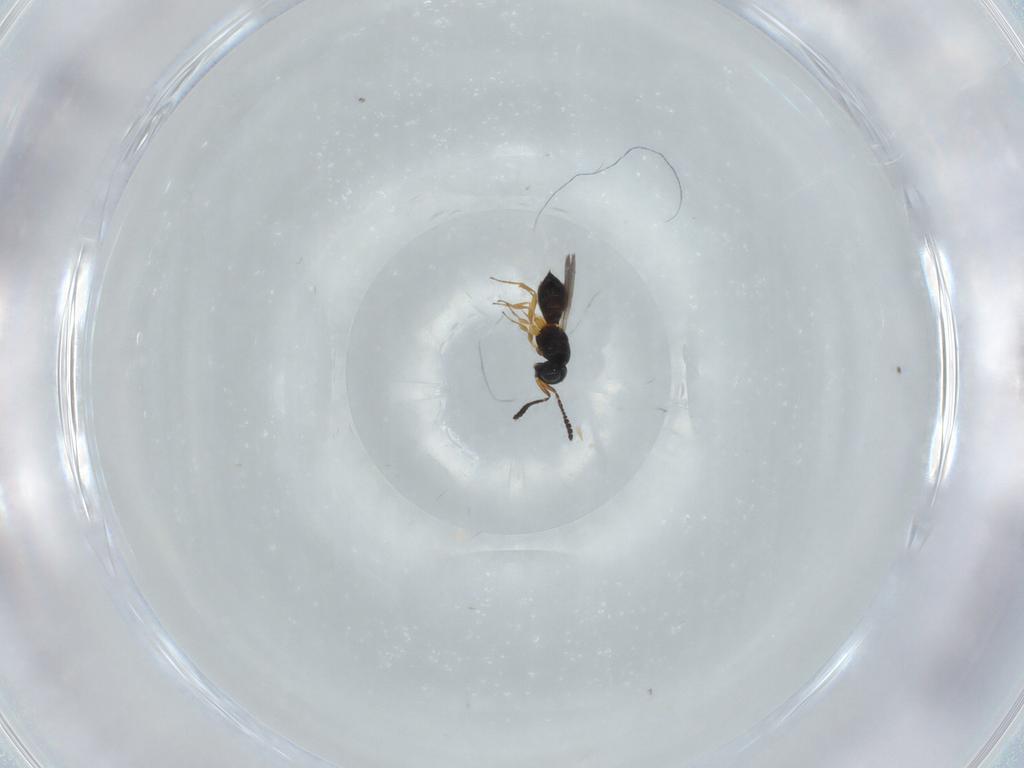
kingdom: Animalia
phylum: Arthropoda
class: Insecta
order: Hymenoptera
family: Scelionidae
